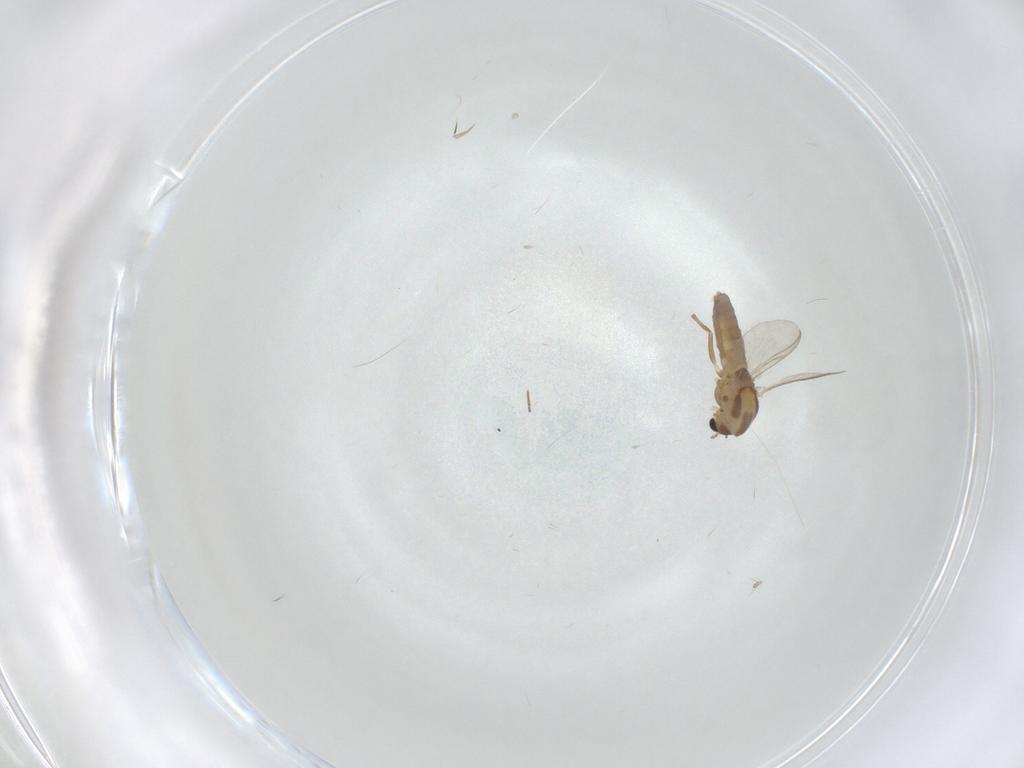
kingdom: Animalia
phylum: Arthropoda
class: Insecta
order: Diptera
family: Chironomidae
